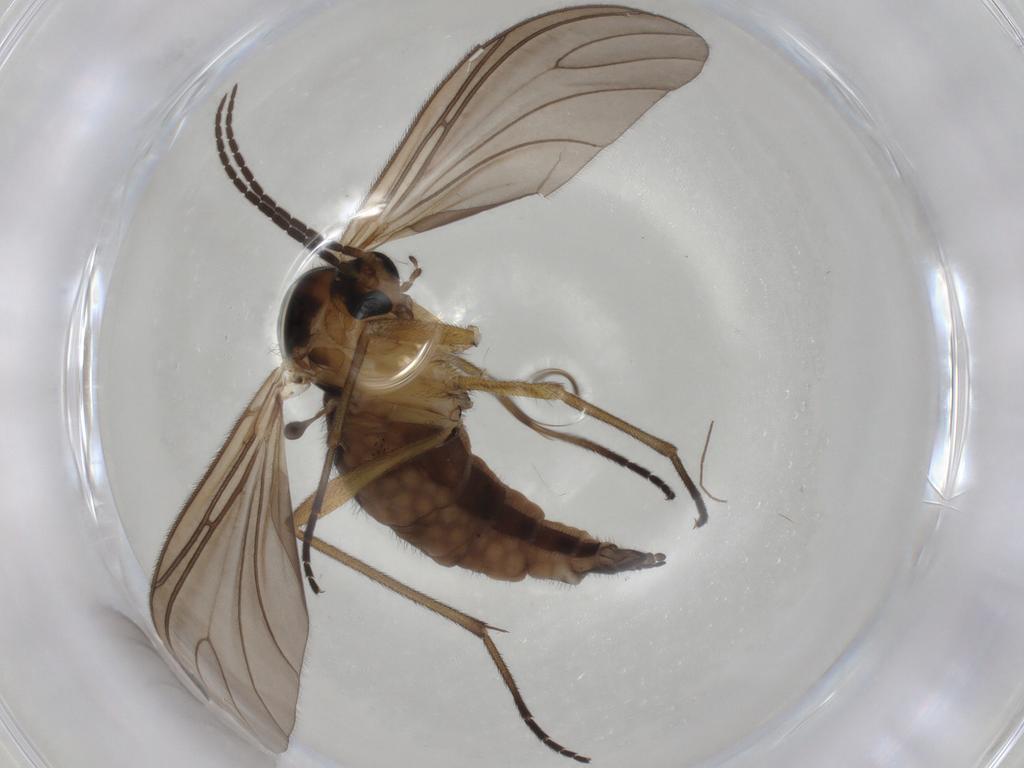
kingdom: Animalia
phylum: Arthropoda
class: Insecta
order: Diptera
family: Sciaridae
